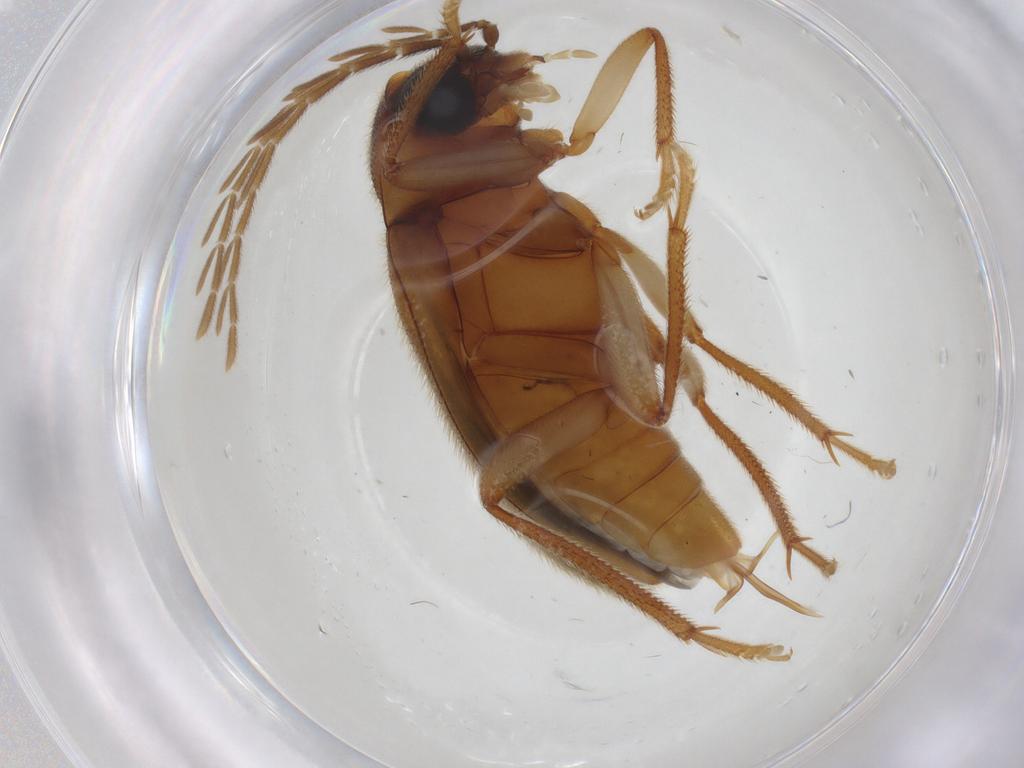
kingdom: Animalia
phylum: Arthropoda
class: Insecta
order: Coleoptera
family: Ptilodactylidae
